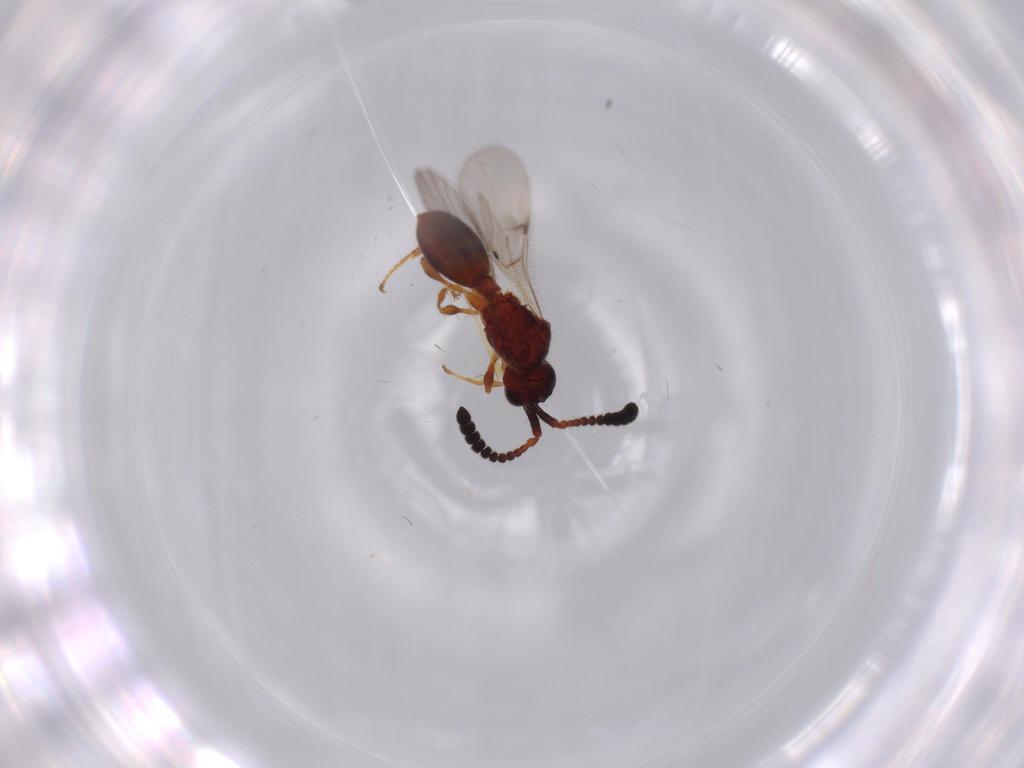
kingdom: Animalia
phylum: Arthropoda
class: Insecta
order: Hymenoptera
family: Diapriidae
